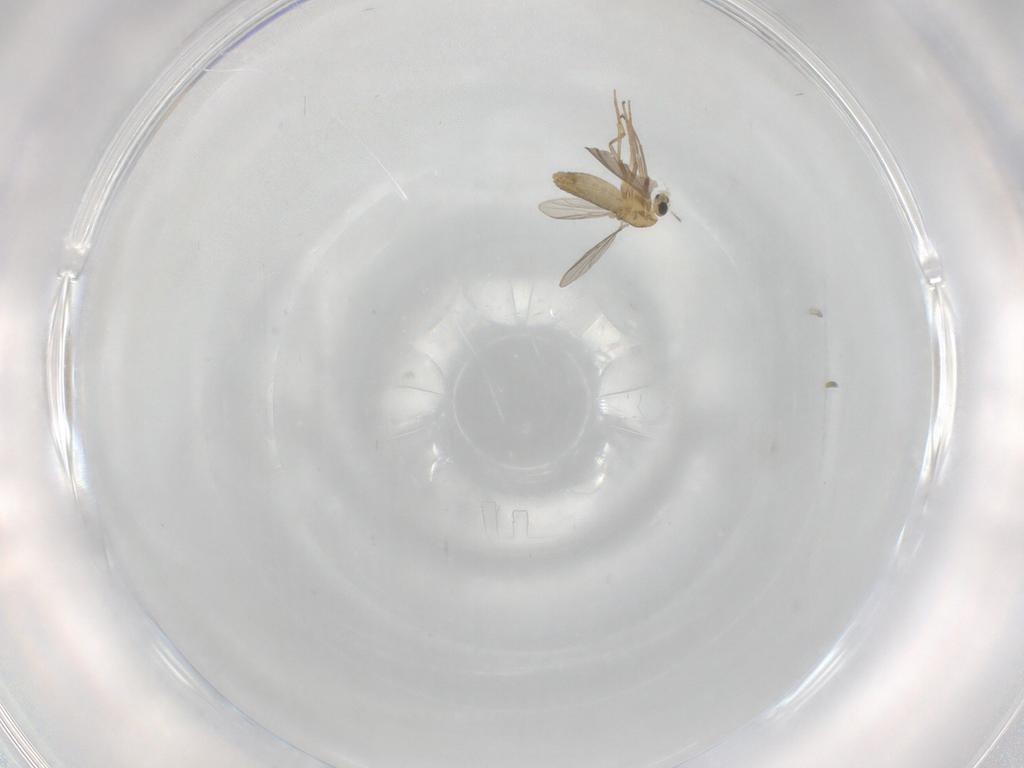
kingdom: Animalia
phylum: Arthropoda
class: Insecta
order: Diptera
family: Chironomidae
